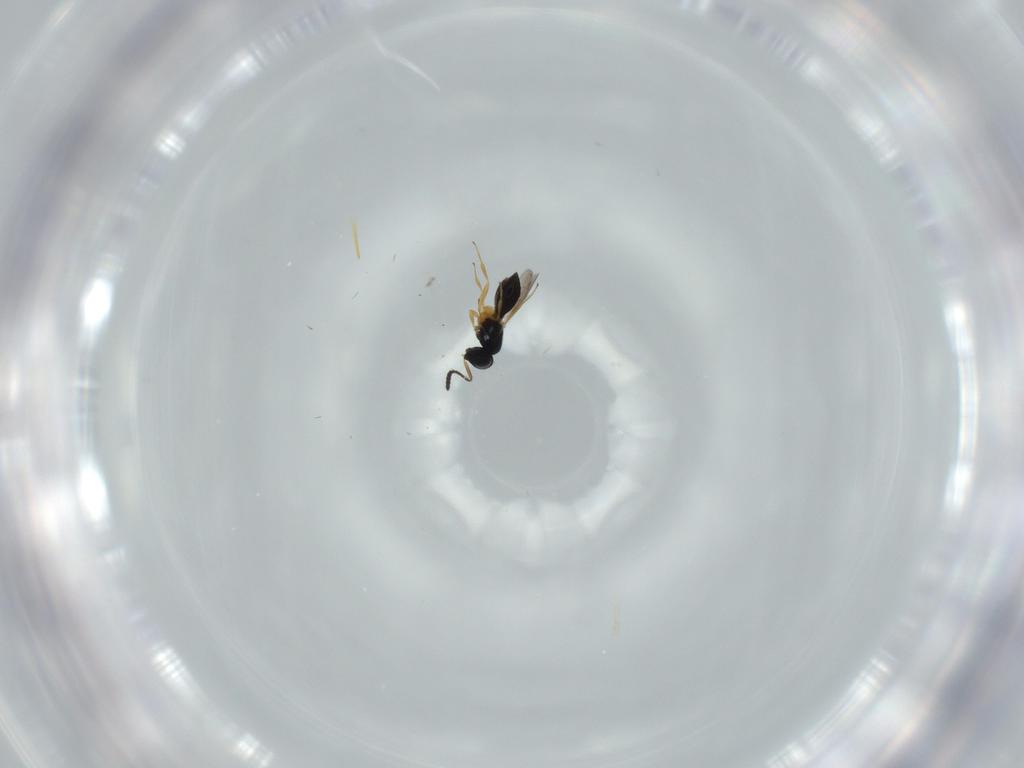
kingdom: Animalia
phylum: Arthropoda
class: Insecta
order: Hymenoptera
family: Scelionidae
